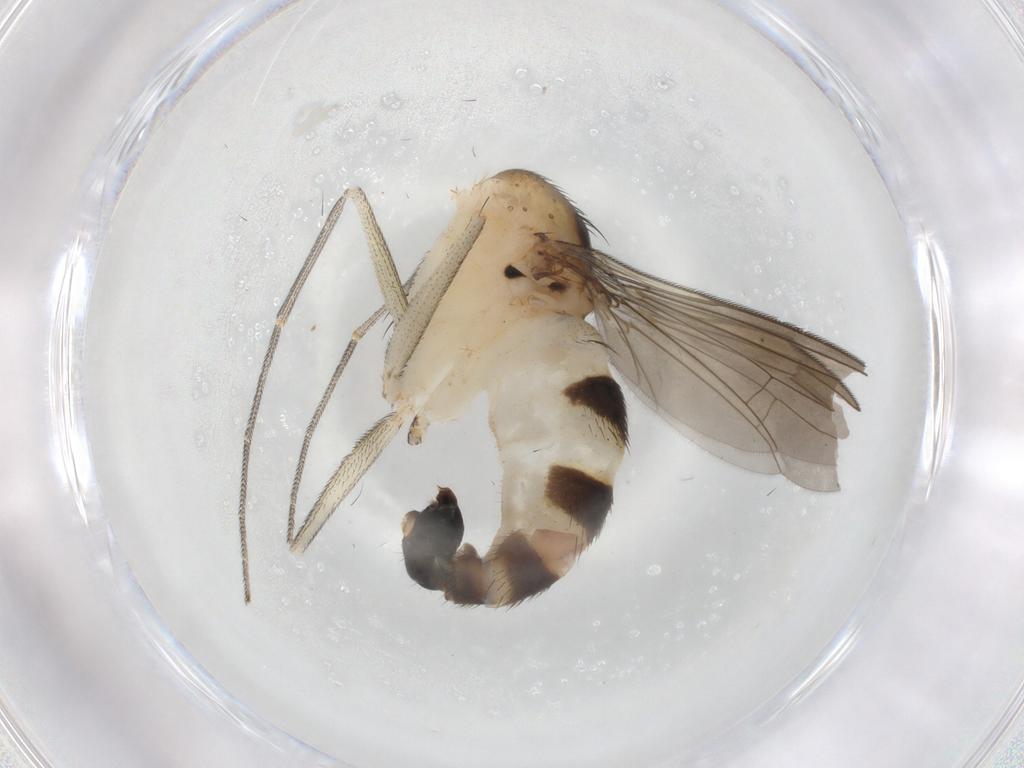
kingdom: Animalia
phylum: Arthropoda
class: Insecta
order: Diptera
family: Dolichopodidae
